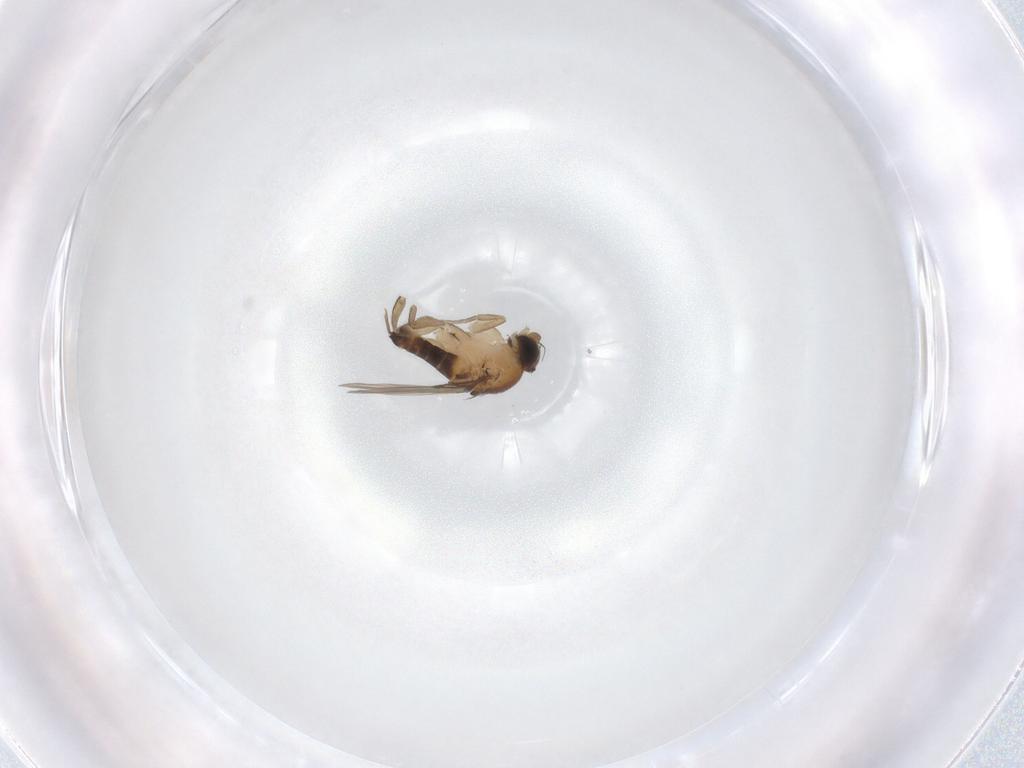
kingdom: Animalia
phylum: Arthropoda
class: Insecta
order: Diptera
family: Phoridae
